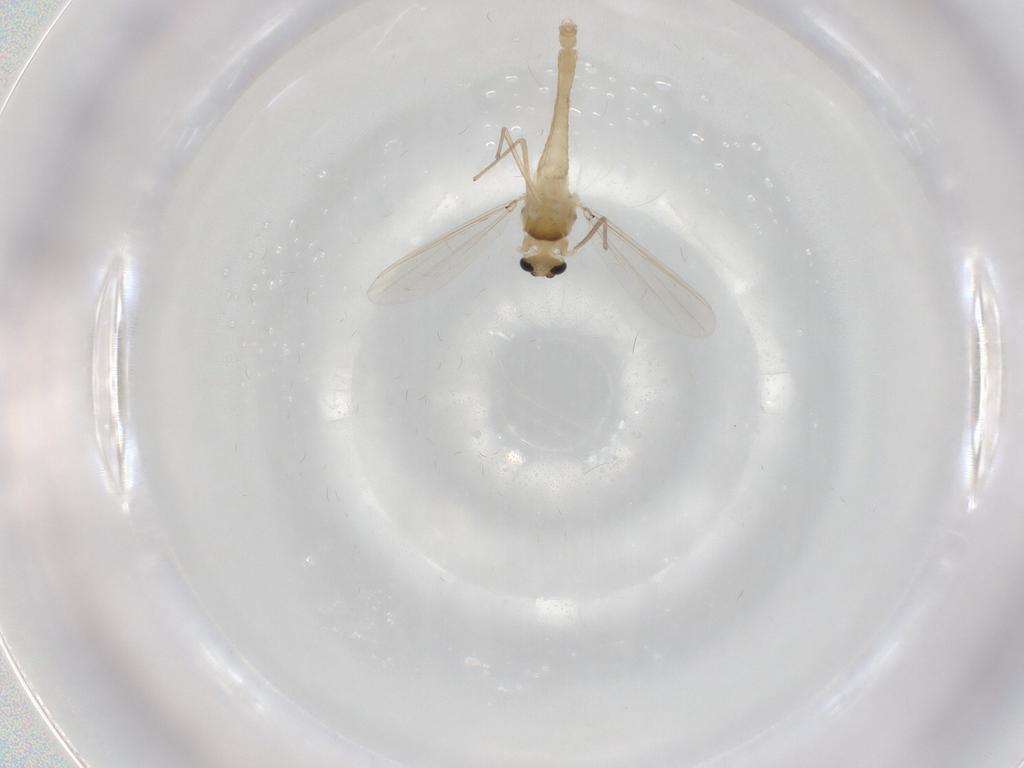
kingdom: Animalia
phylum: Arthropoda
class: Insecta
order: Diptera
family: Chironomidae
